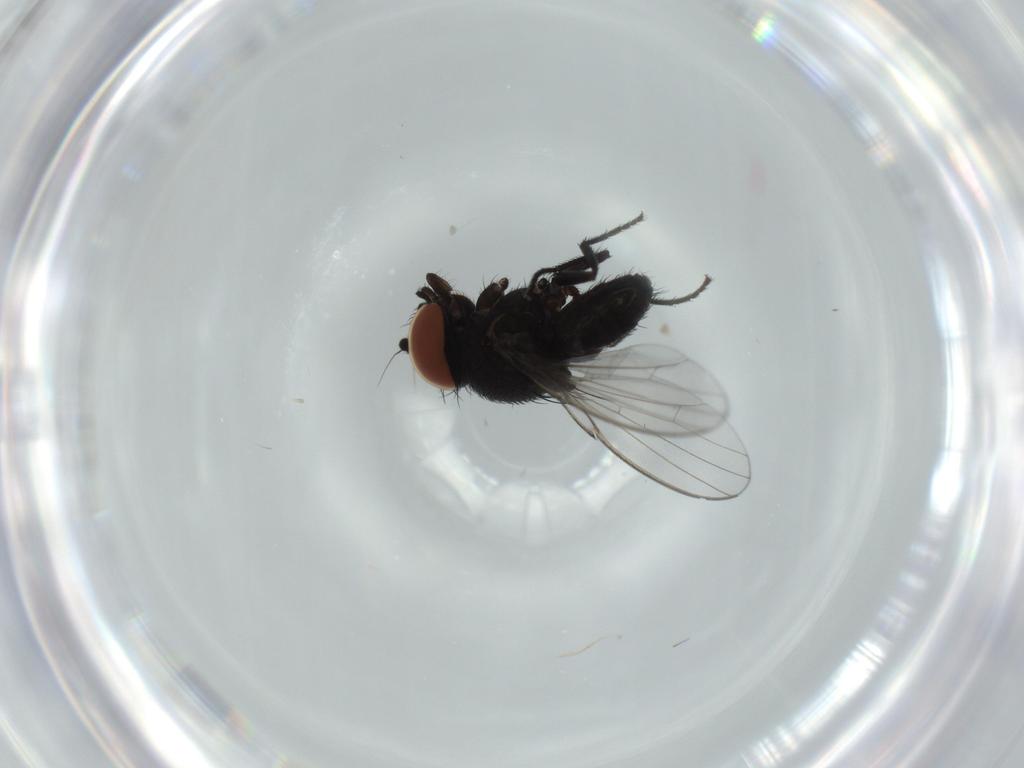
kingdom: Animalia
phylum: Arthropoda
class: Insecta
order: Diptera
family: Milichiidae
